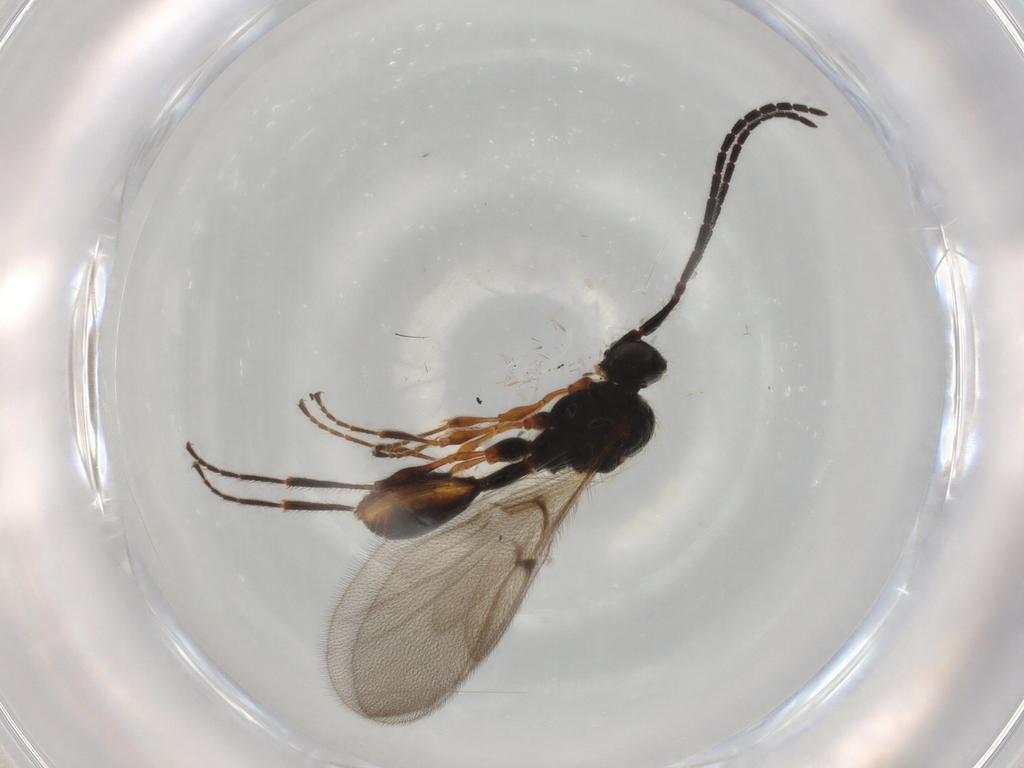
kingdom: Animalia
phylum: Arthropoda
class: Insecta
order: Hymenoptera
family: Diapriidae
